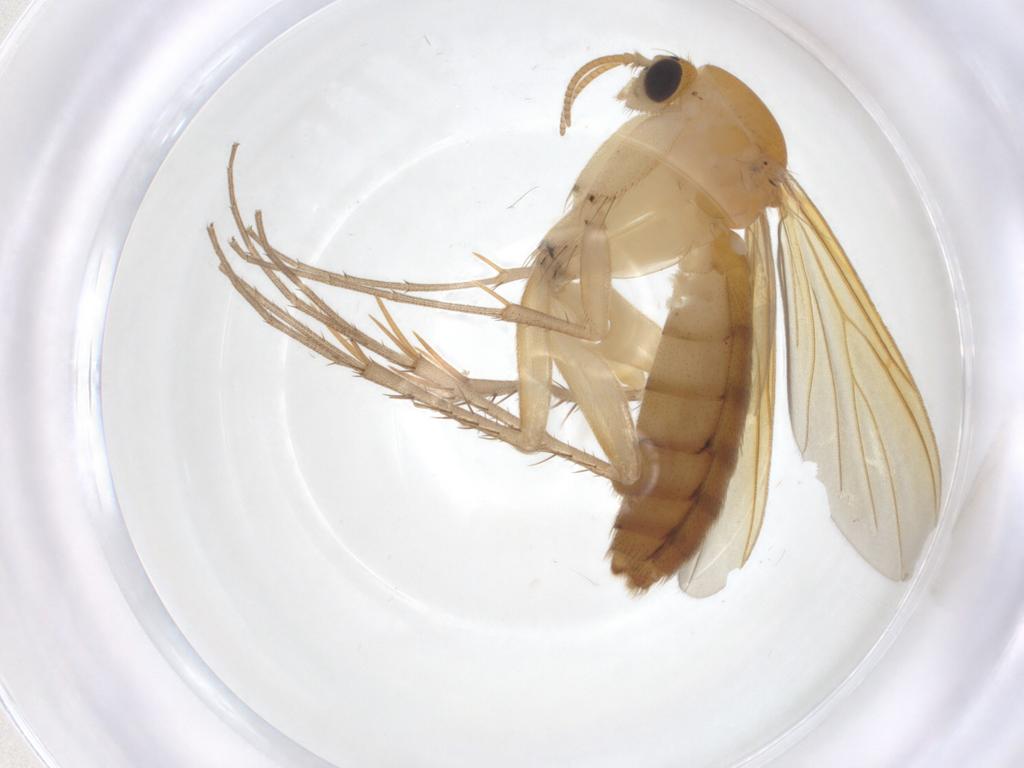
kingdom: Animalia
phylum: Arthropoda
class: Insecta
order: Diptera
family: Mycetophilidae
